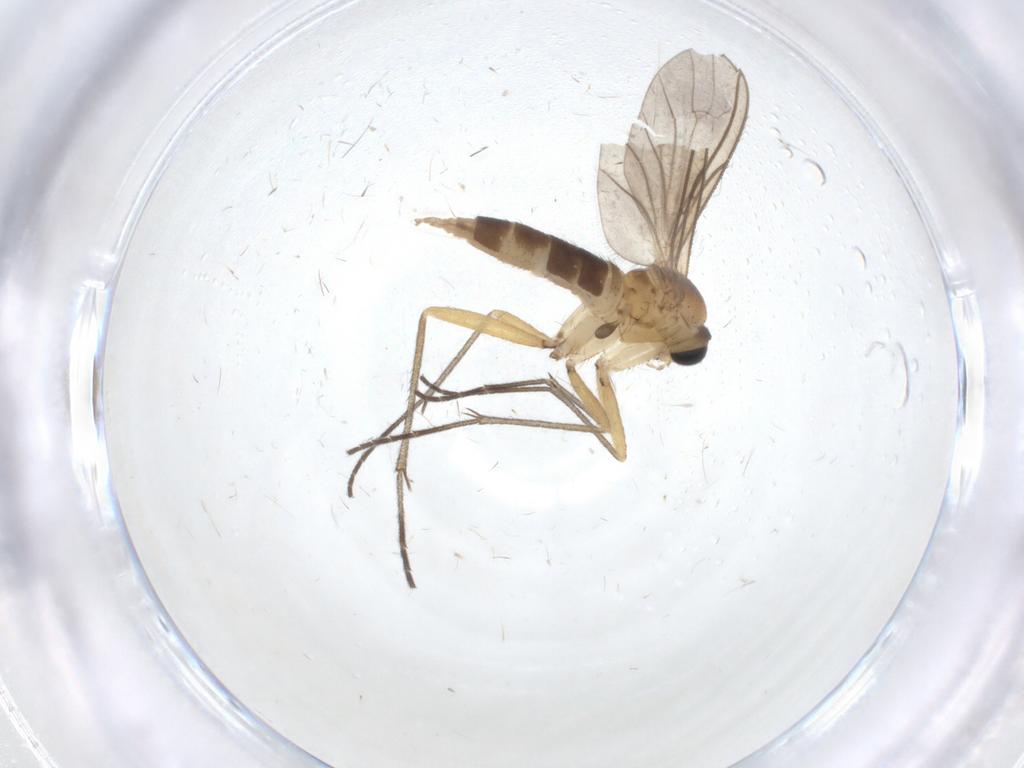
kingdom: Animalia
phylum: Arthropoda
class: Insecta
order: Diptera
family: Sciaridae
